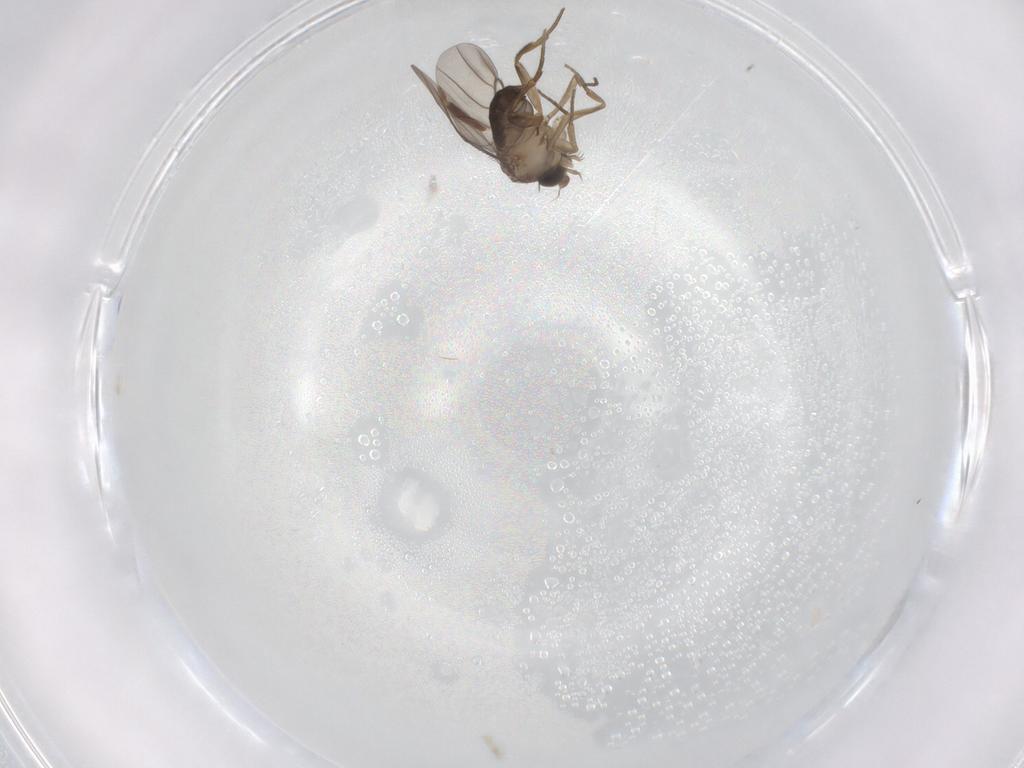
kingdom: Animalia
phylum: Arthropoda
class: Insecta
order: Diptera
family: Chironomidae
